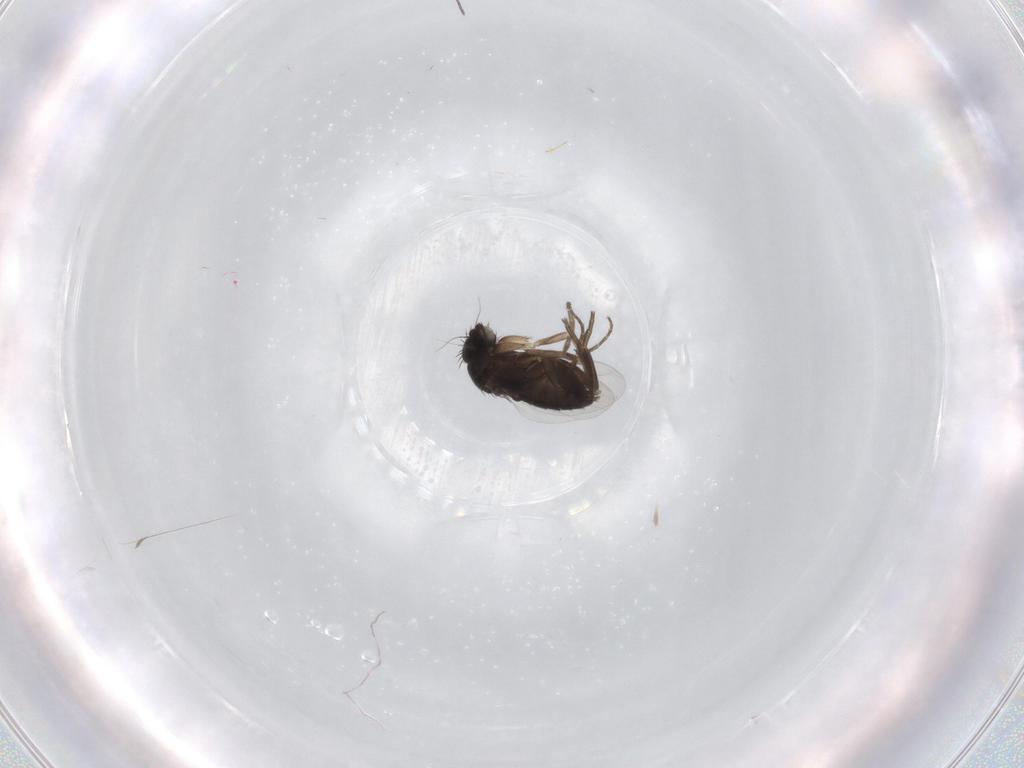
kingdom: Animalia
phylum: Arthropoda
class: Insecta
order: Diptera
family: Phoridae
